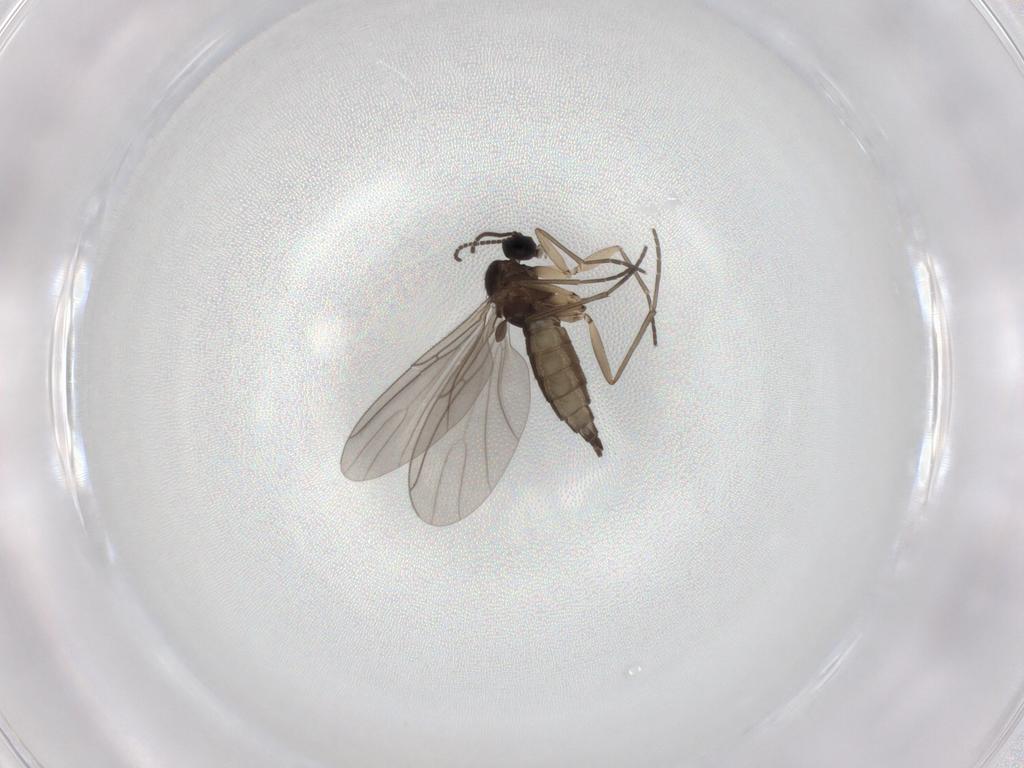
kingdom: Animalia
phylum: Arthropoda
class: Insecta
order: Diptera
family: Sciaridae
